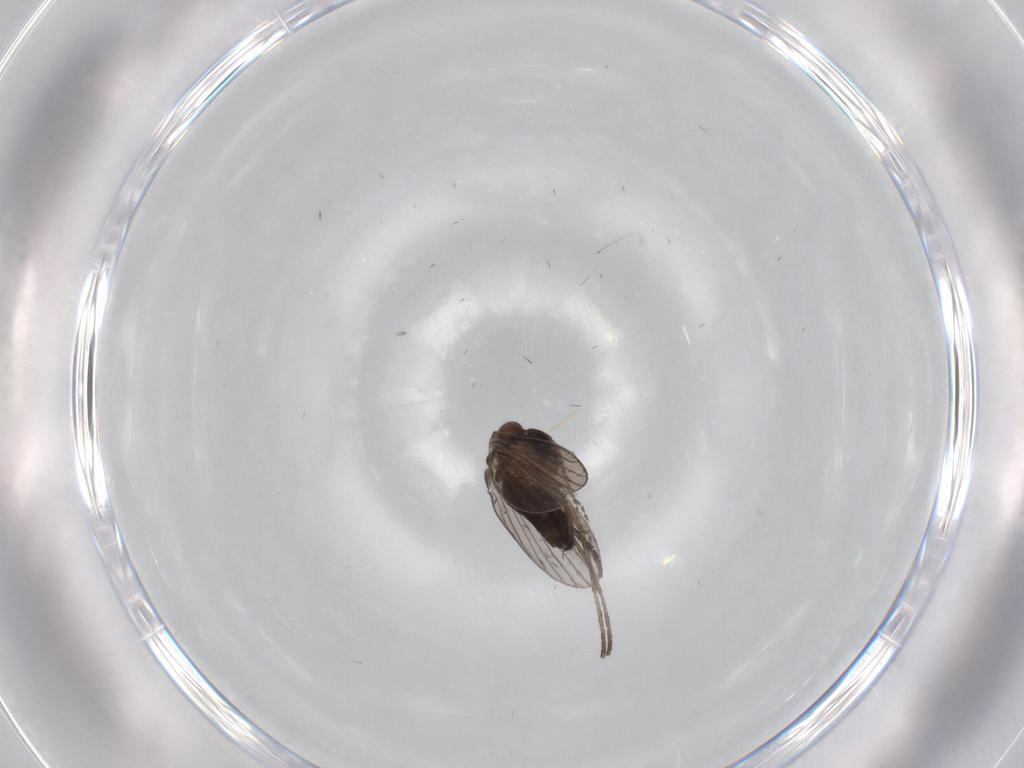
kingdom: Animalia
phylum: Arthropoda
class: Insecta
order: Diptera
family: Psychodidae
